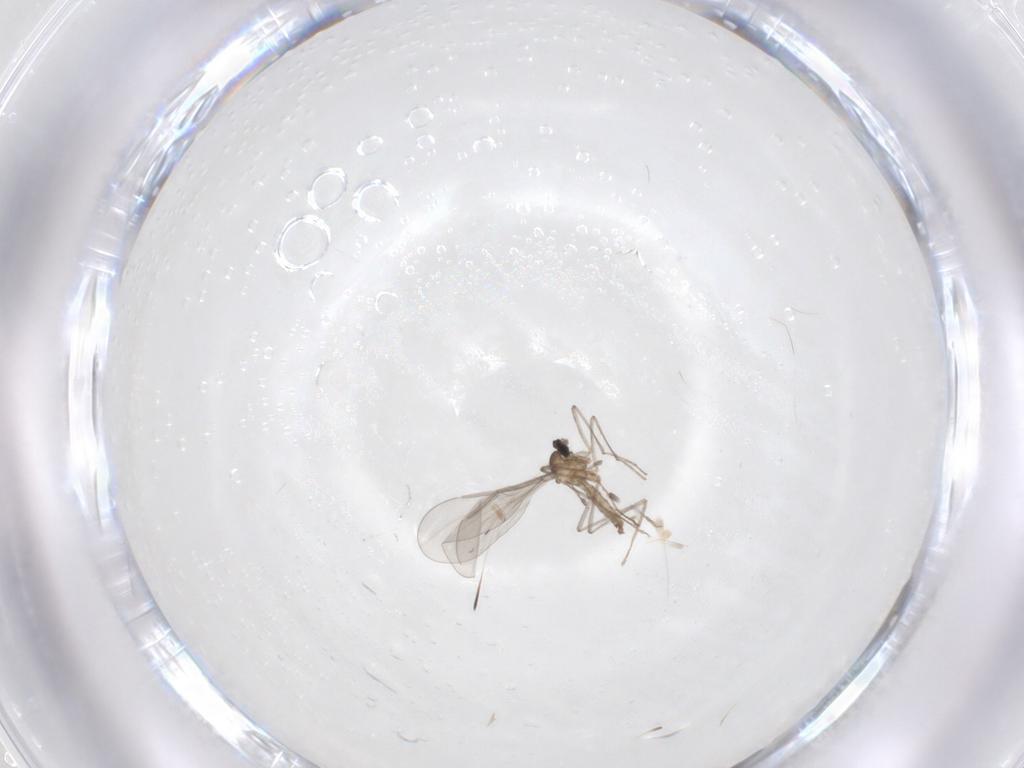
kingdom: Animalia
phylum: Arthropoda
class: Insecta
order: Diptera
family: Cecidomyiidae
